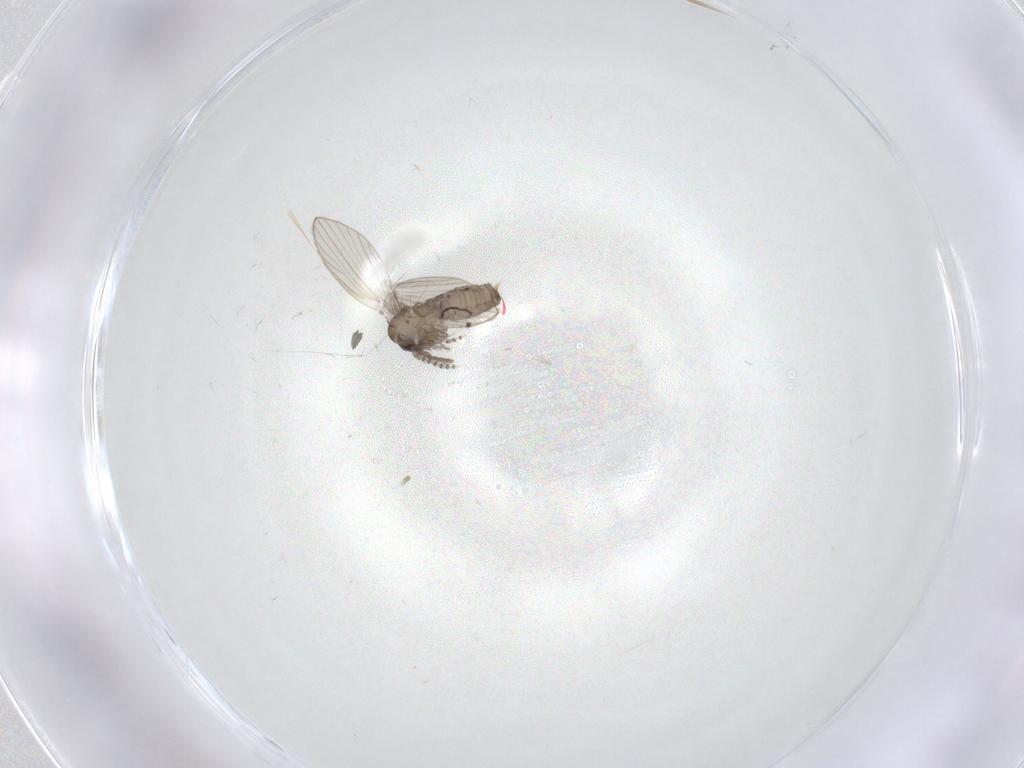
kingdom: Animalia
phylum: Arthropoda
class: Insecta
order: Diptera
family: Psychodidae
